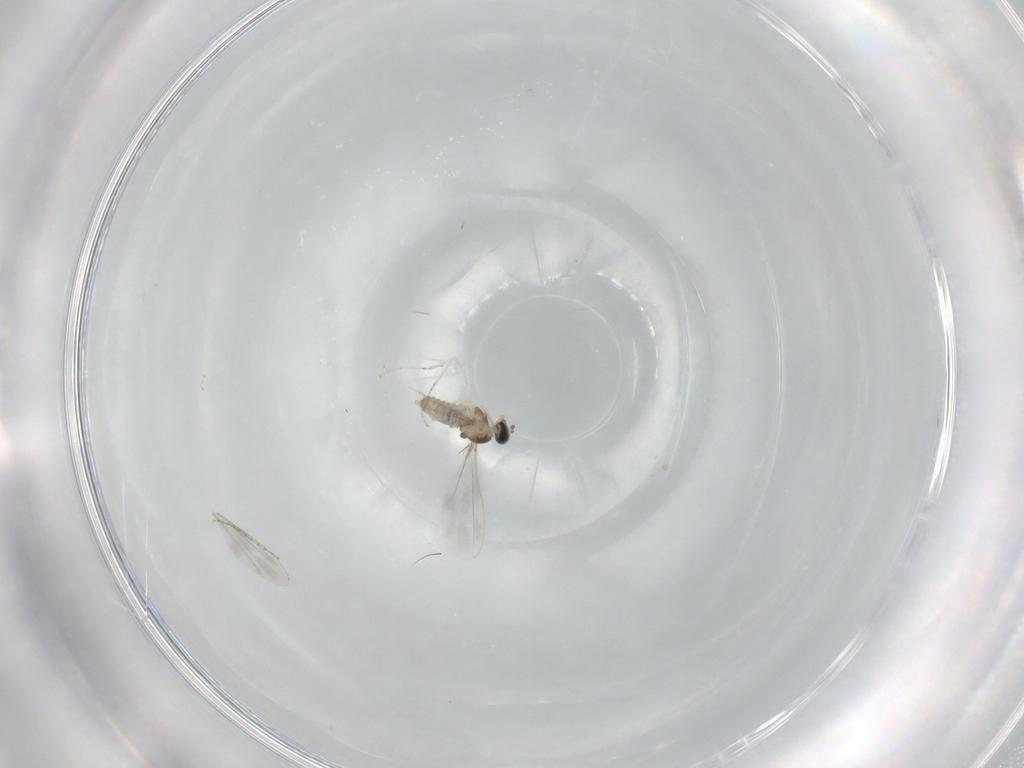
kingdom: Animalia
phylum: Arthropoda
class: Insecta
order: Diptera
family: Cecidomyiidae
